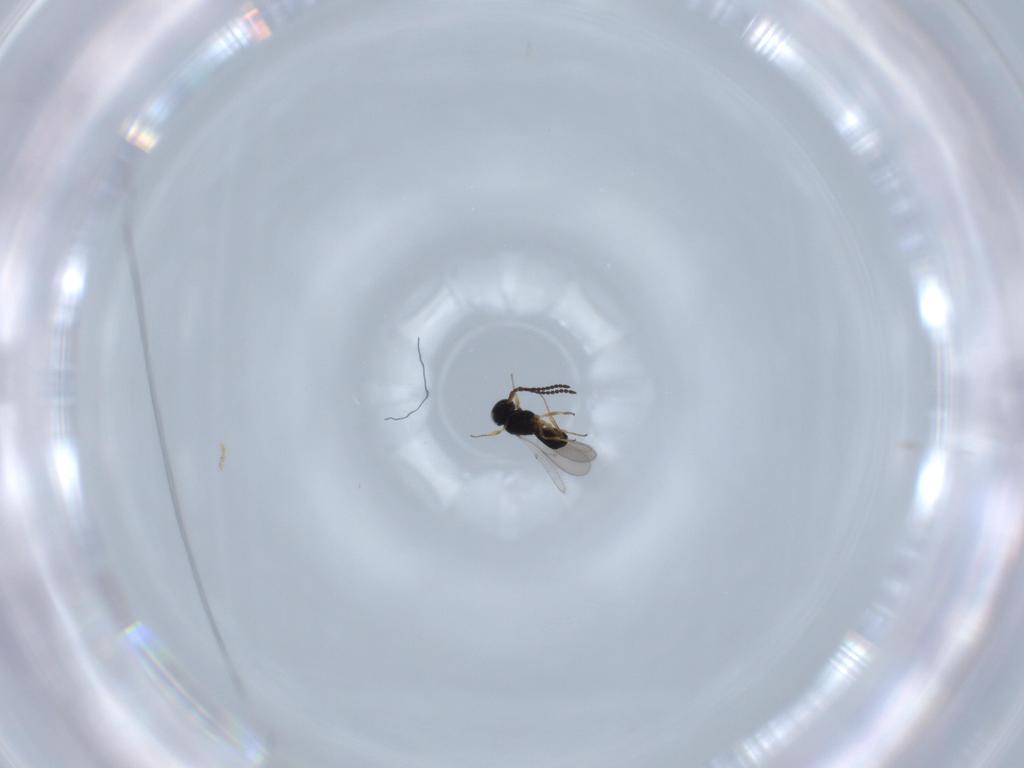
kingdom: Animalia
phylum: Arthropoda
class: Insecta
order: Hymenoptera
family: Scelionidae
